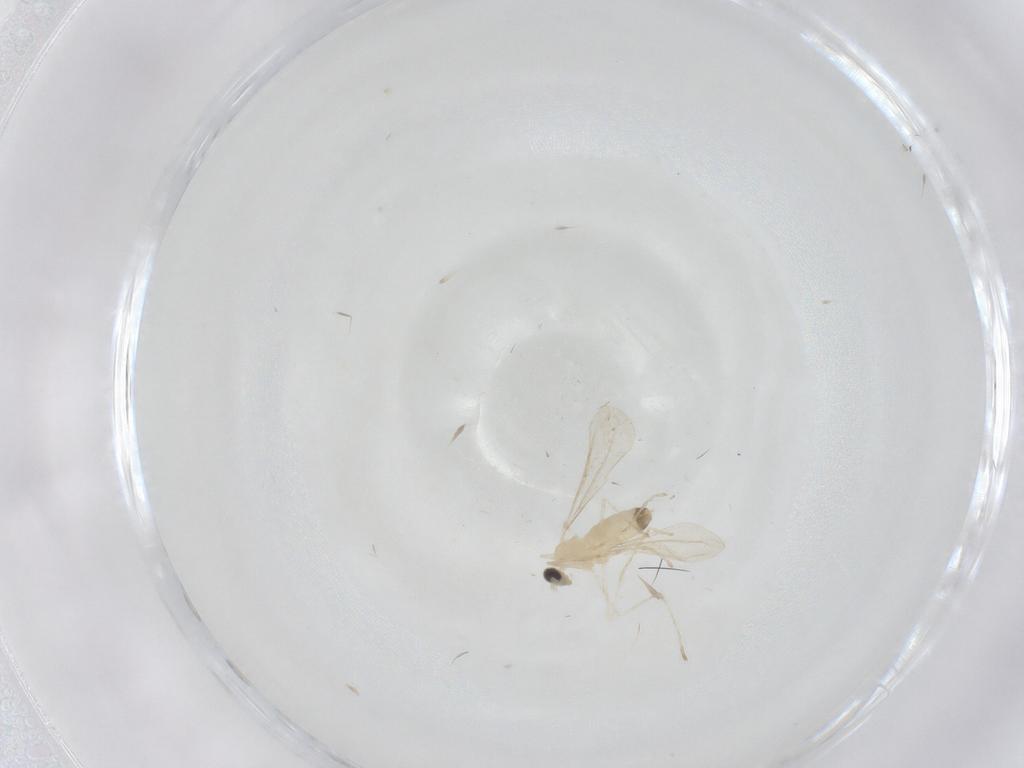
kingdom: Animalia
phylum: Arthropoda
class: Insecta
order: Diptera
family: Cecidomyiidae
